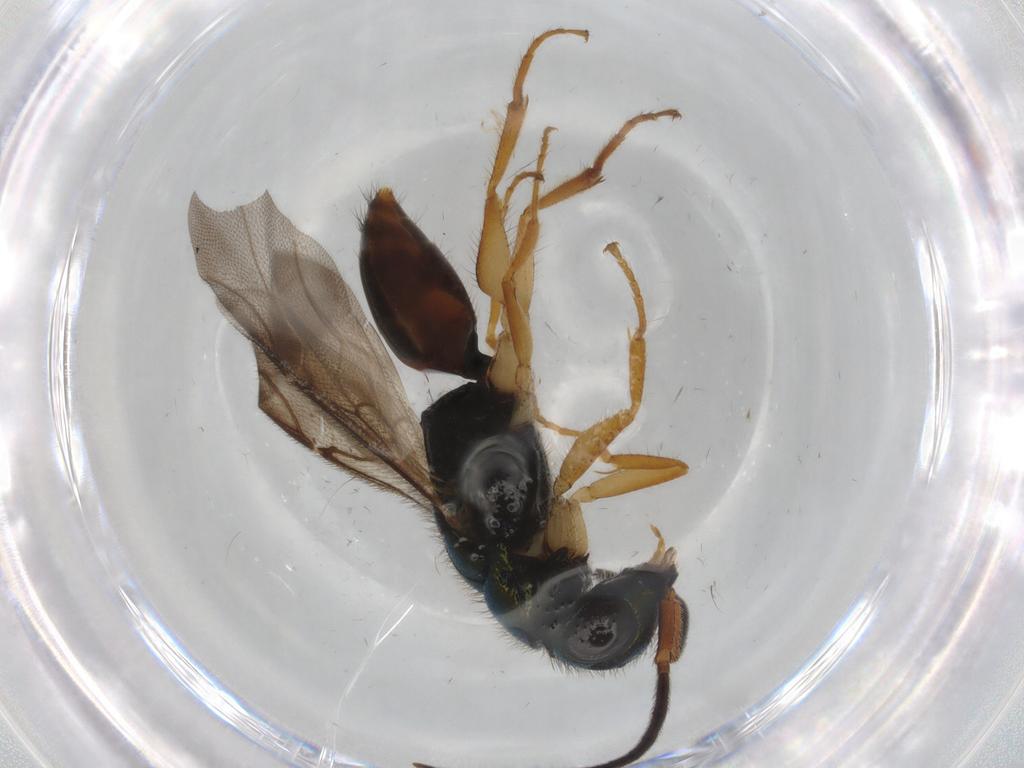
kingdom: Animalia
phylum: Arthropoda
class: Insecta
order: Hymenoptera
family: Chrysididae
